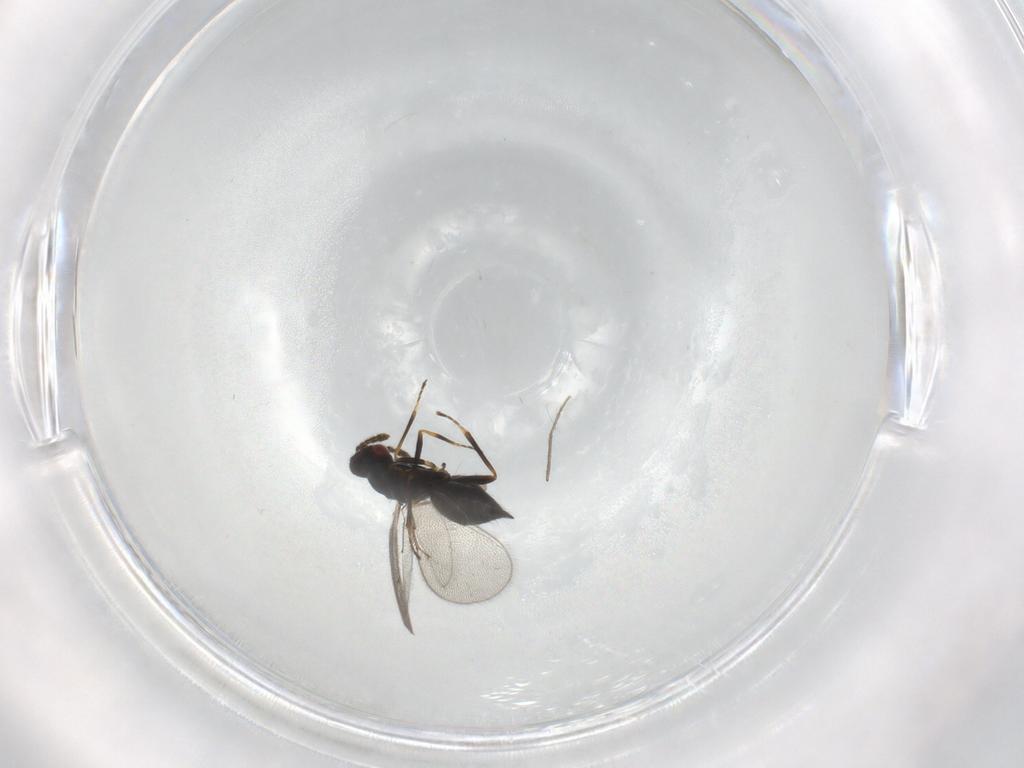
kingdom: Animalia
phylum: Arthropoda
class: Insecta
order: Hymenoptera
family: Eulophidae
